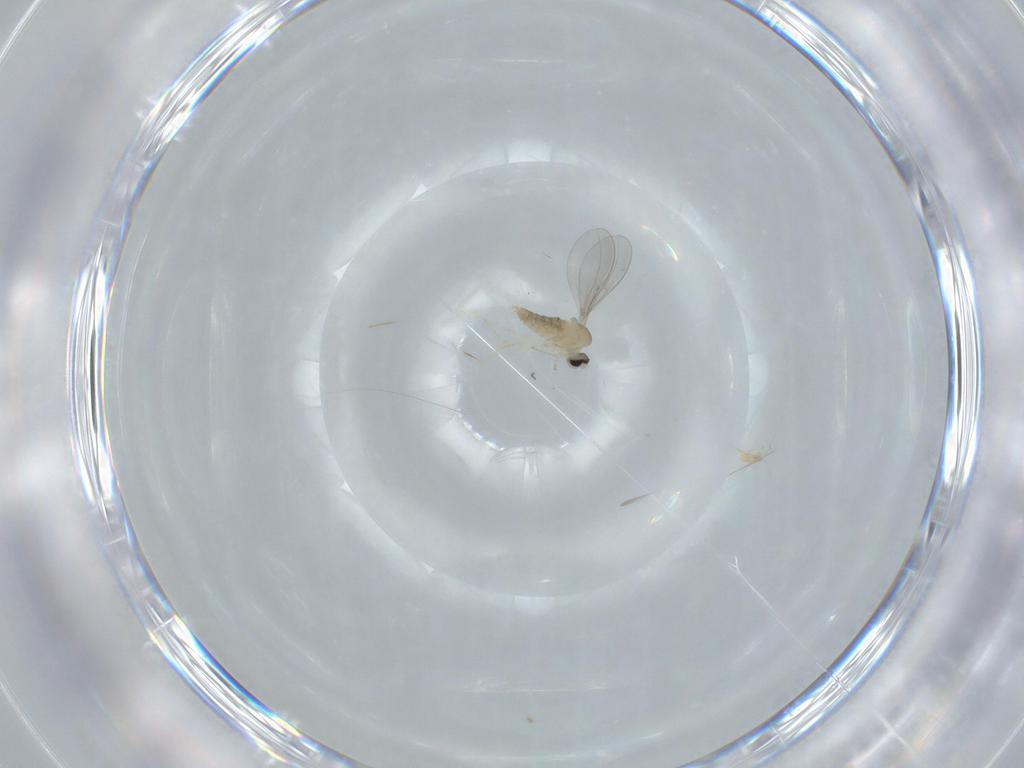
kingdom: Animalia
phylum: Arthropoda
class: Insecta
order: Diptera
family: Cecidomyiidae
